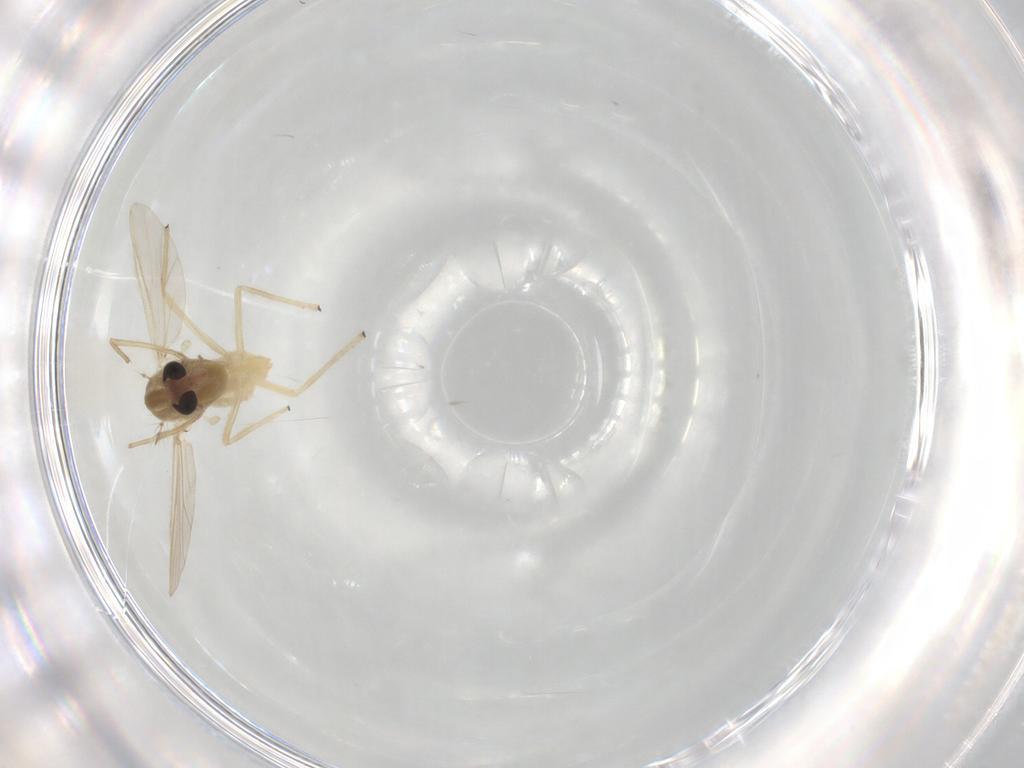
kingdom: Animalia
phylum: Arthropoda
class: Insecta
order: Diptera
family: Chironomidae
